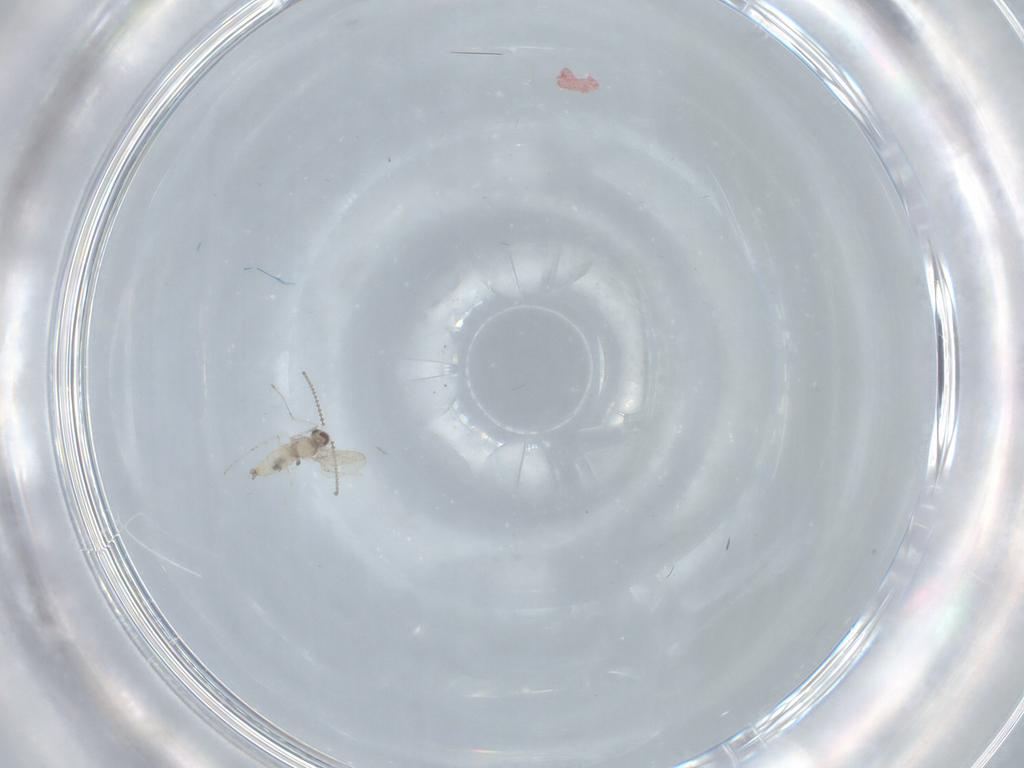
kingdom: Animalia
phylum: Arthropoda
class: Insecta
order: Diptera
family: Cecidomyiidae
